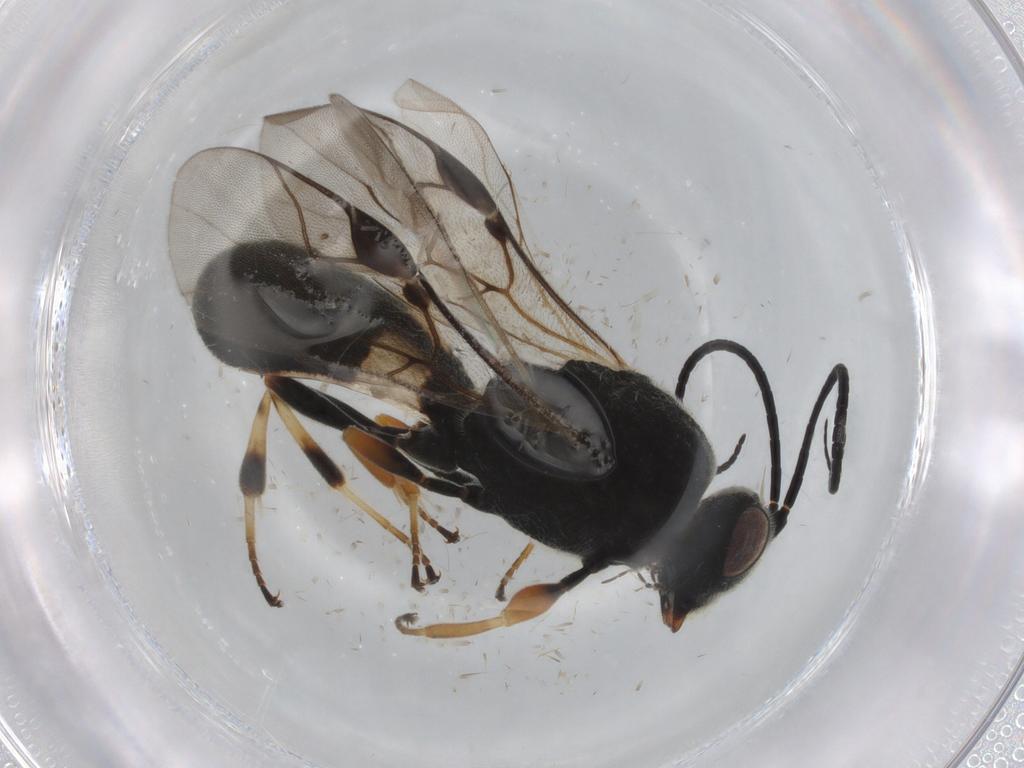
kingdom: Animalia
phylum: Arthropoda
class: Insecta
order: Hymenoptera
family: Braconidae
